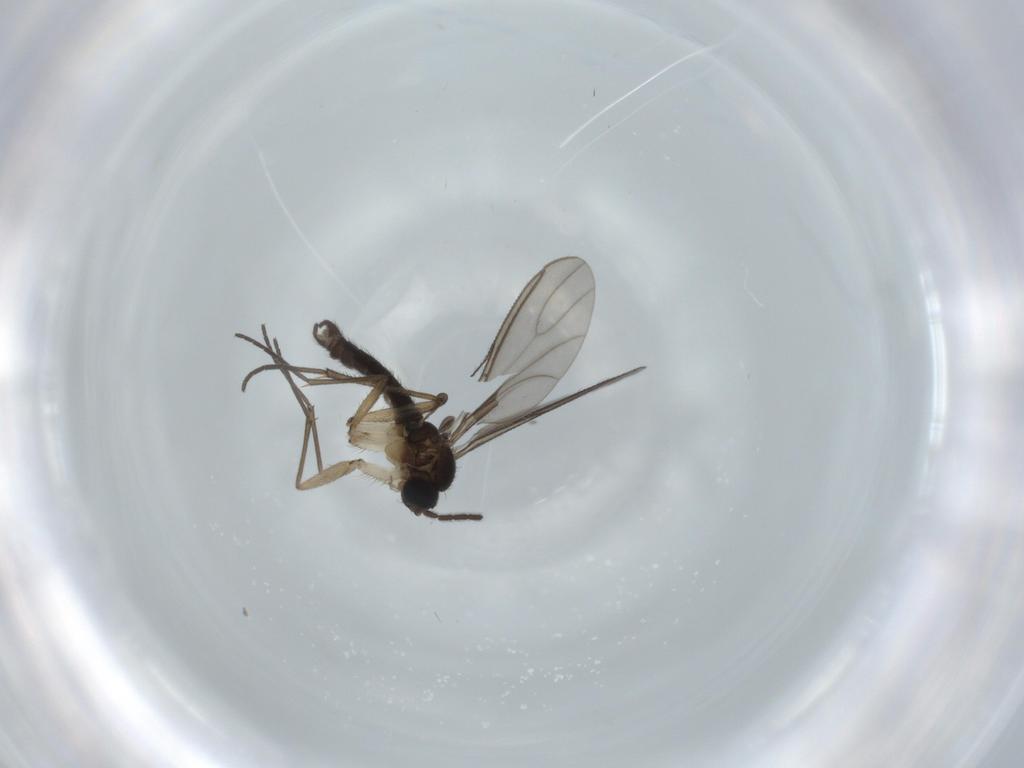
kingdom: Animalia
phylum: Arthropoda
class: Insecta
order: Diptera
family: Sciaridae
